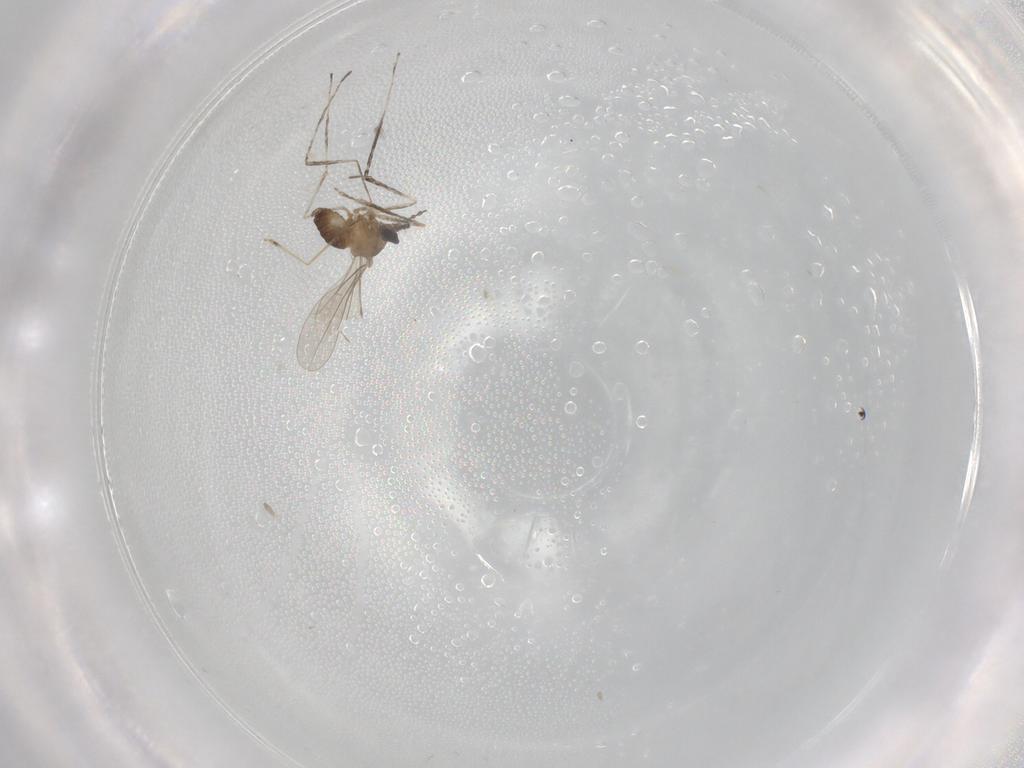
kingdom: Animalia
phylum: Arthropoda
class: Insecta
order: Diptera
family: Cecidomyiidae
